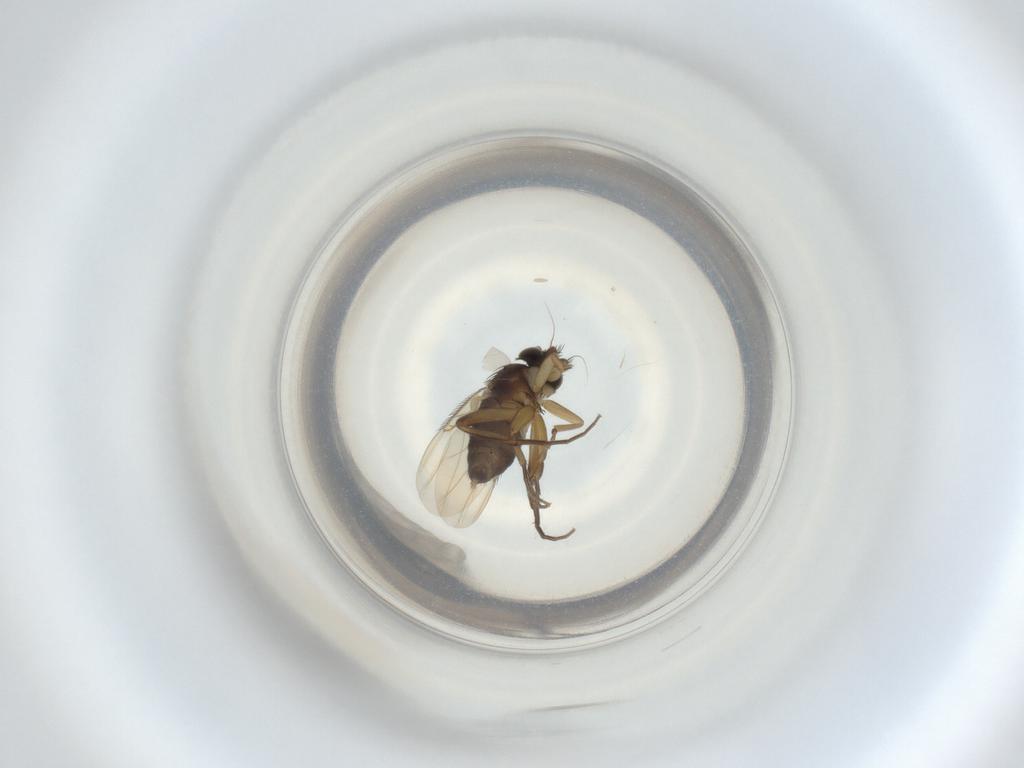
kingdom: Animalia
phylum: Arthropoda
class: Insecta
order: Diptera
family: Phoridae
